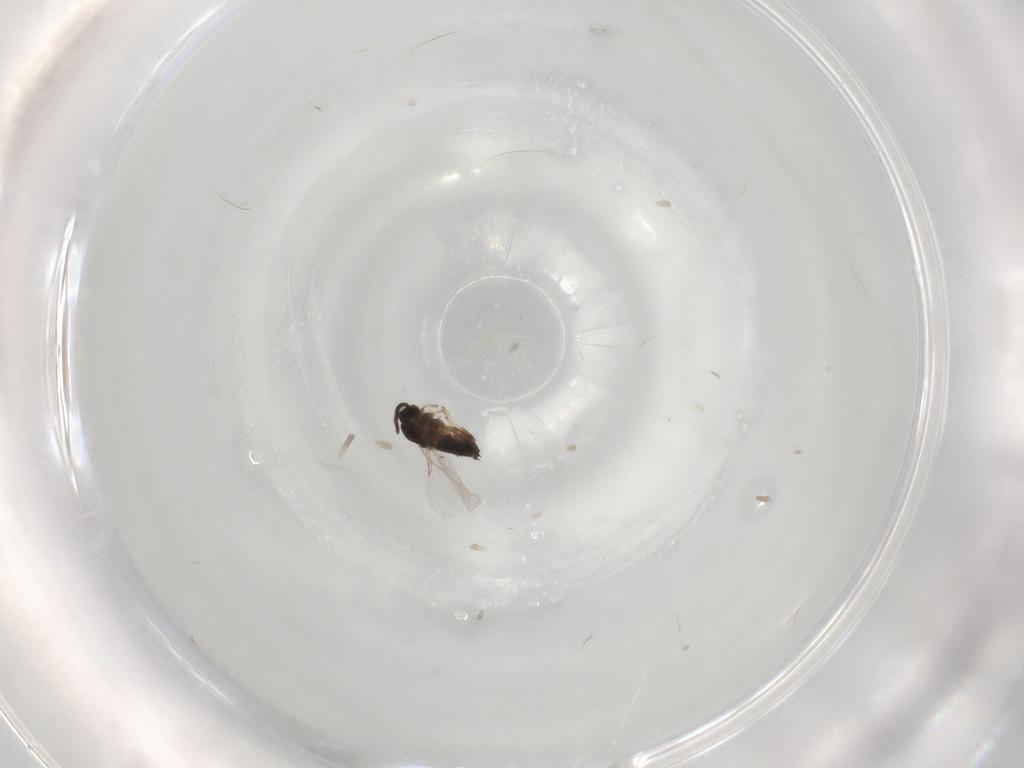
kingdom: Animalia
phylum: Arthropoda
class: Insecta
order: Diptera
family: Scatopsidae
